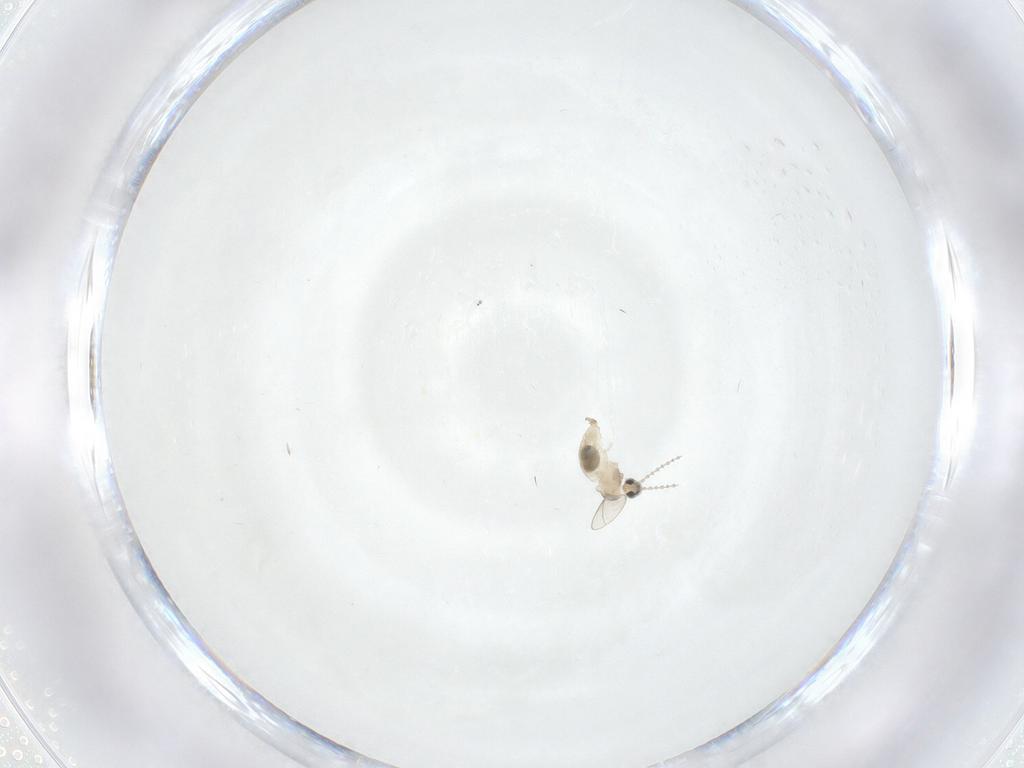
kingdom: Animalia
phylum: Arthropoda
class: Insecta
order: Diptera
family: Cecidomyiidae
